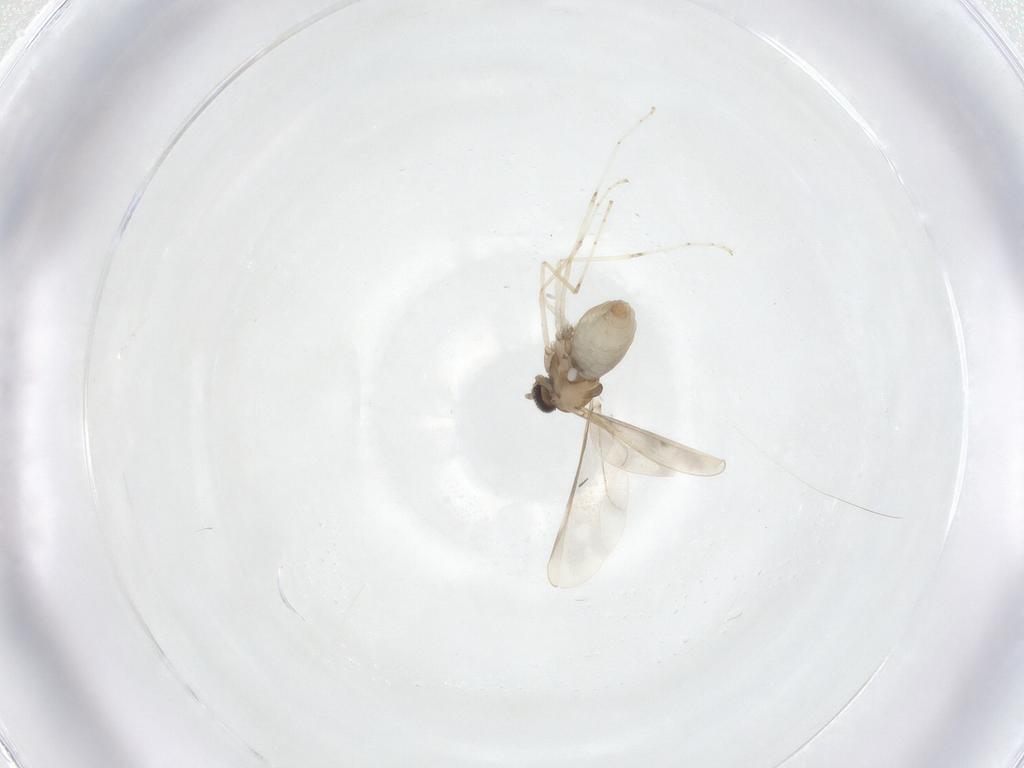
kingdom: Animalia
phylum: Arthropoda
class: Insecta
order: Diptera
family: Cecidomyiidae
